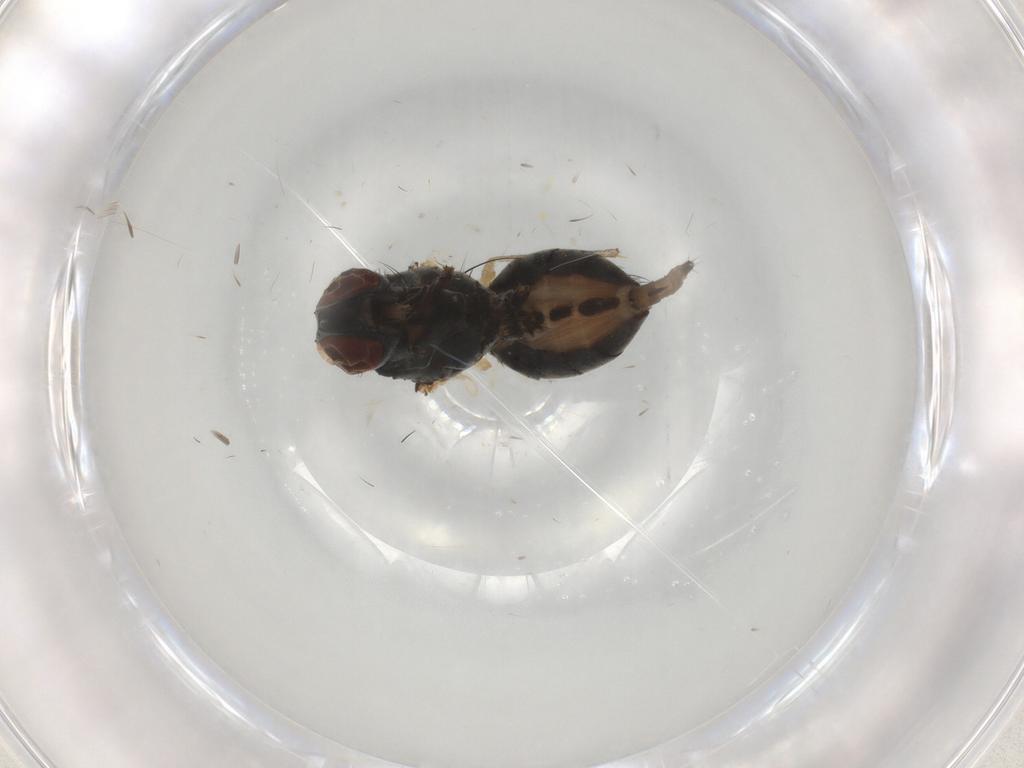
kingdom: Animalia
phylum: Arthropoda
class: Insecta
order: Diptera
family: Muscidae
